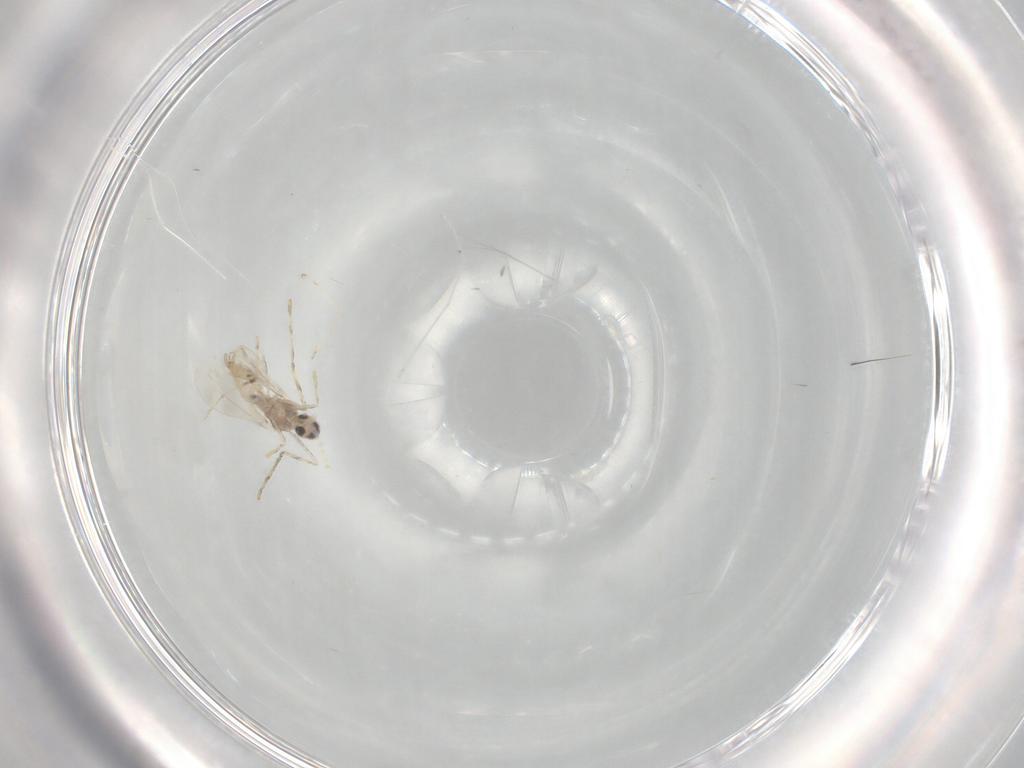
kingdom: Animalia
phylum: Arthropoda
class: Insecta
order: Diptera
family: Cecidomyiidae
